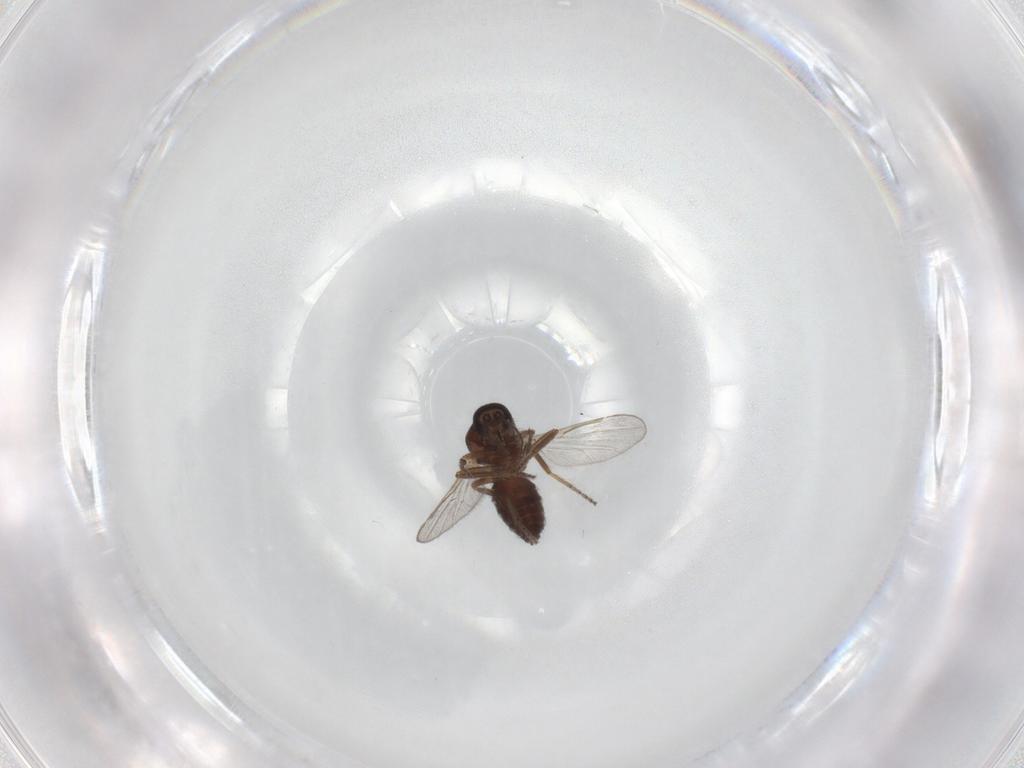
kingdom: Animalia
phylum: Arthropoda
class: Insecta
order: Diptera
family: Ceratopogonidae
